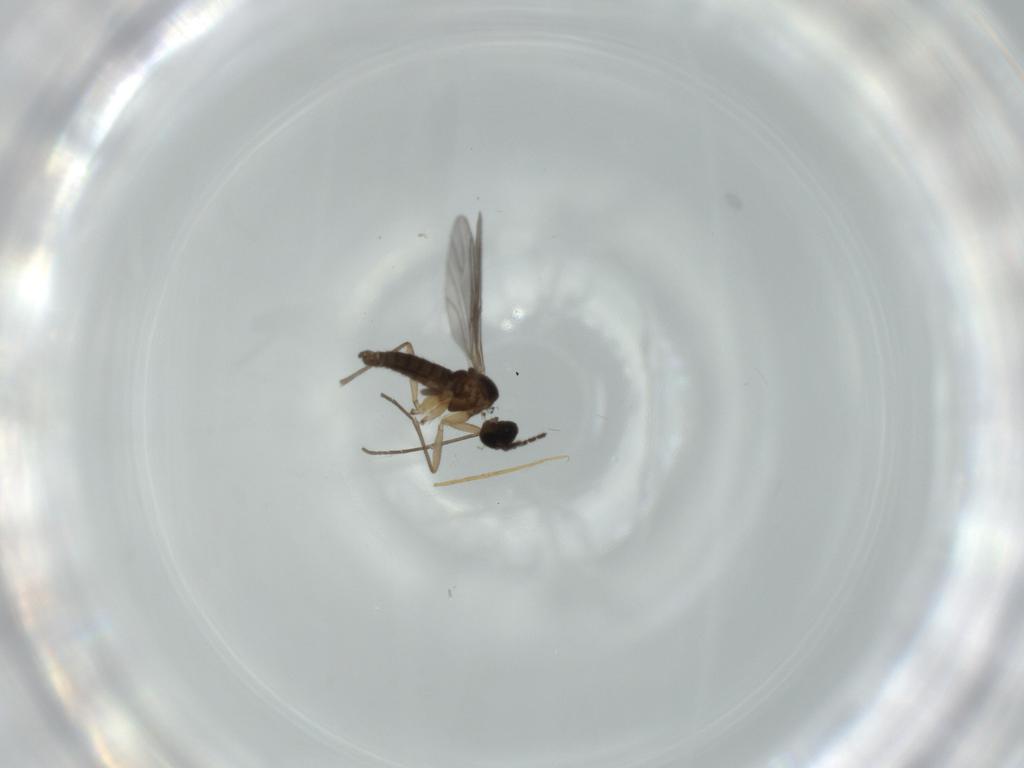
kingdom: Animalia
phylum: Arthropoda
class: Insecta
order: Diptera
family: Sciaridae
